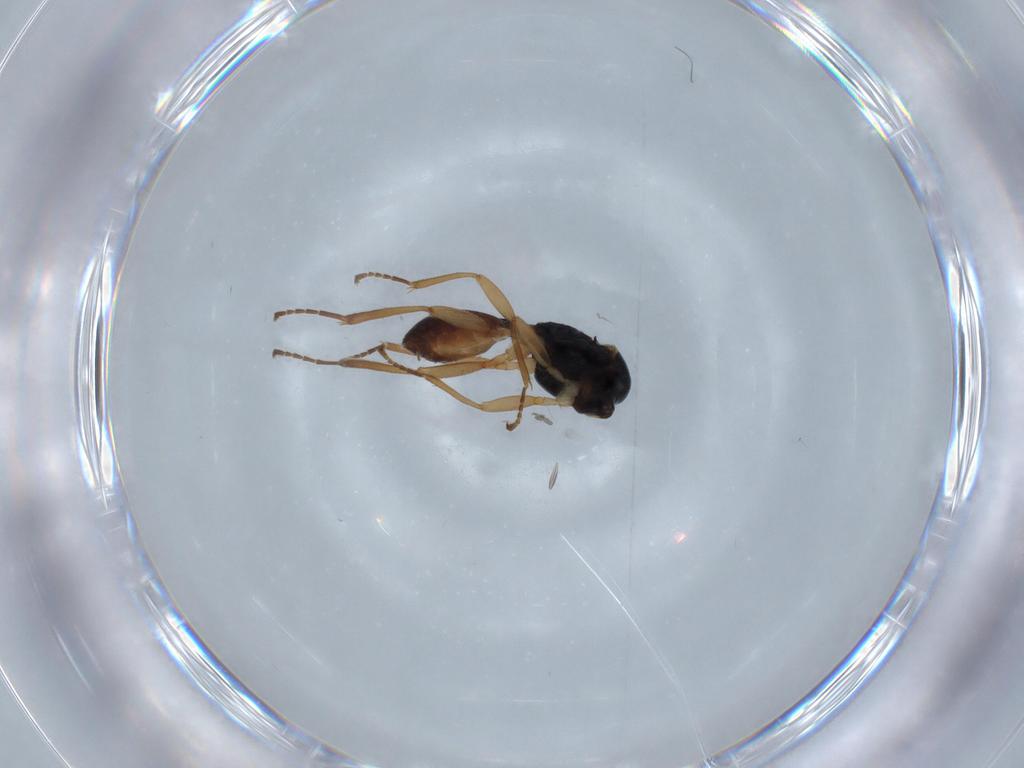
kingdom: Animalia
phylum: Arthropoda
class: Insecta
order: Hymenoptera
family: Braconidae
